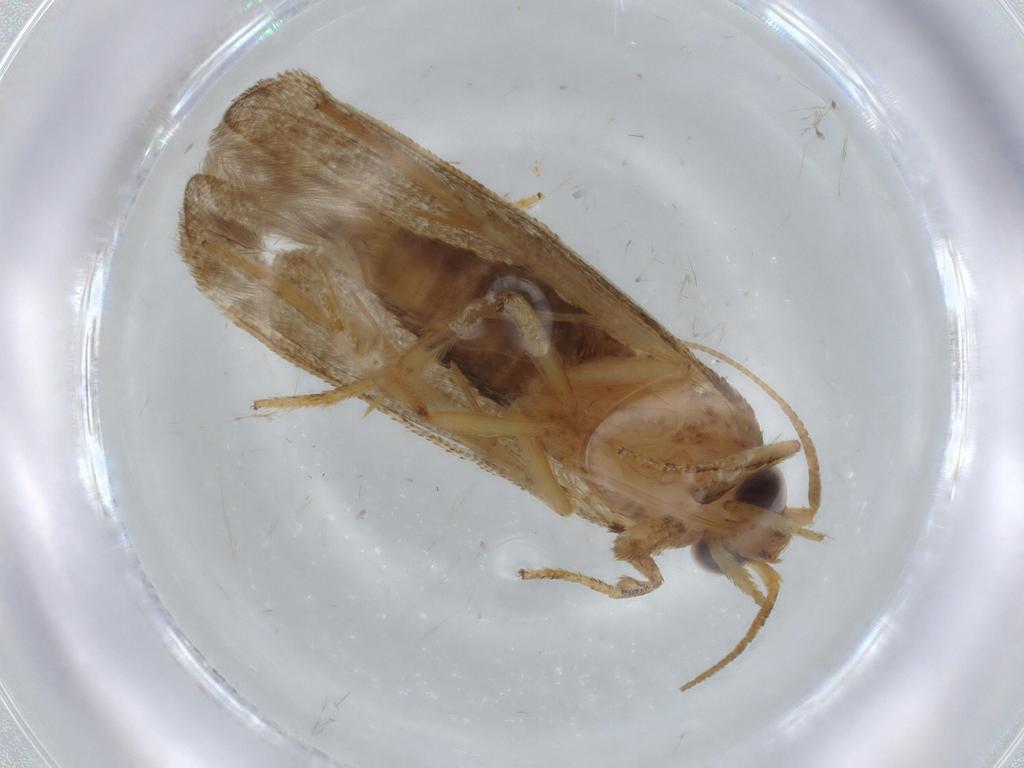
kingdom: Animalia
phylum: Arthropoda
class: Insecta
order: Lepidoptera
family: Blastobasidae
